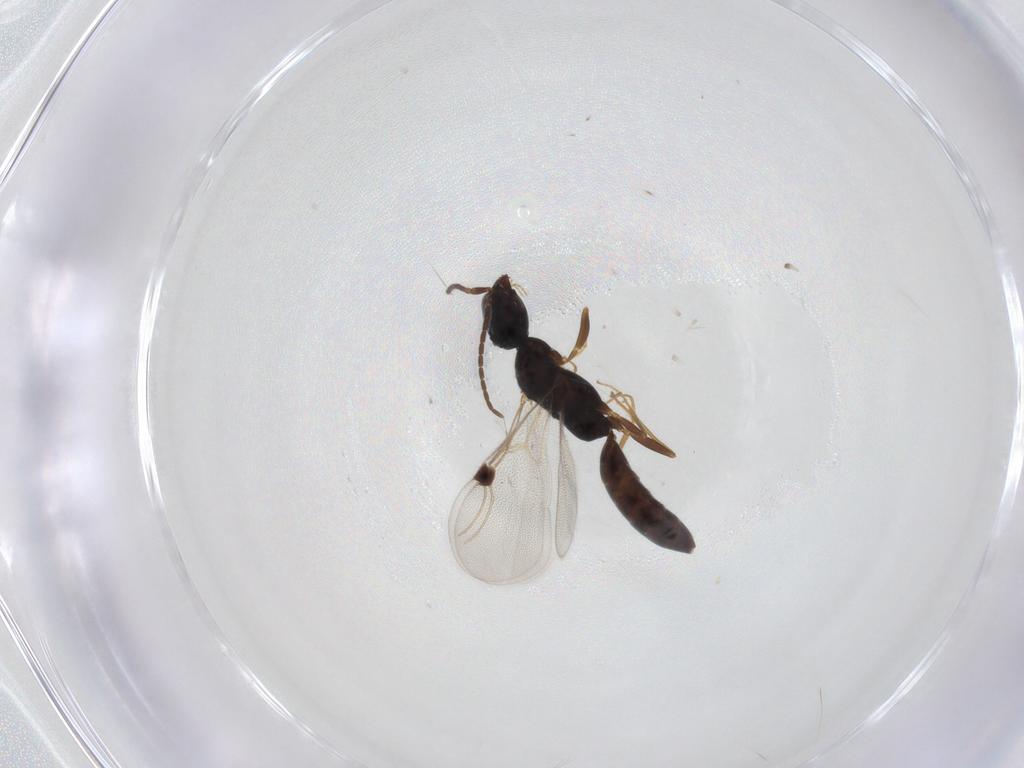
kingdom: Animalia
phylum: Arthropoda
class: Insecta
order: Hymenoptera
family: Bethylidae
